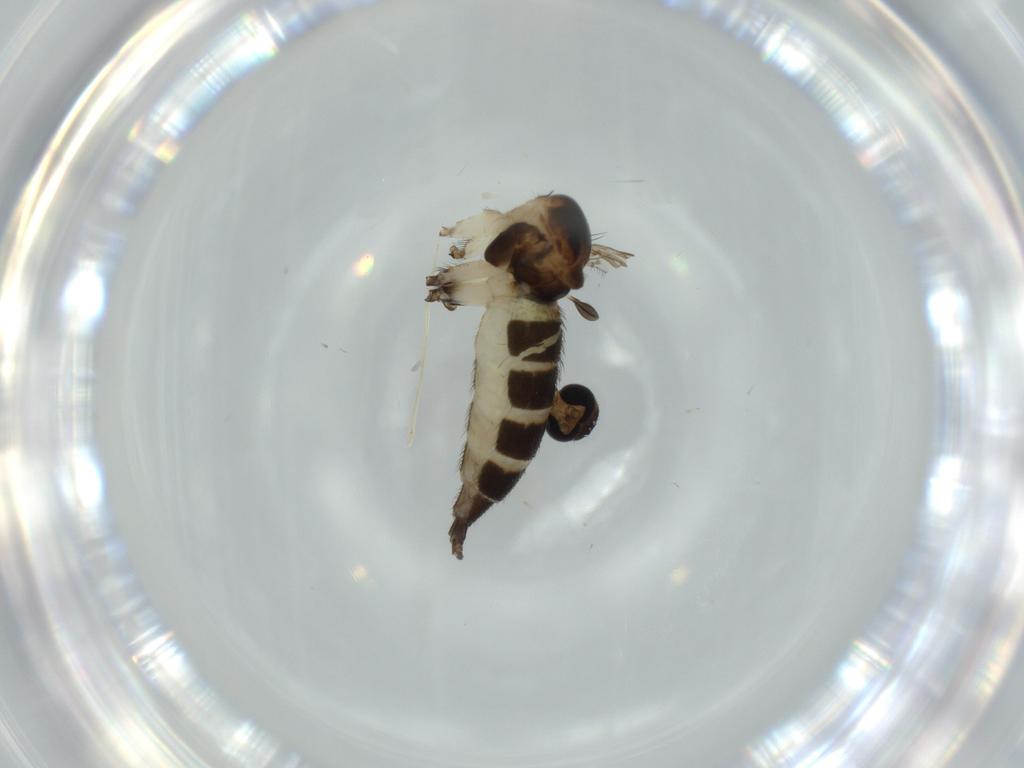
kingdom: Animalia
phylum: Arthropoda
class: Insecta
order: Diptera
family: Sciaridae
